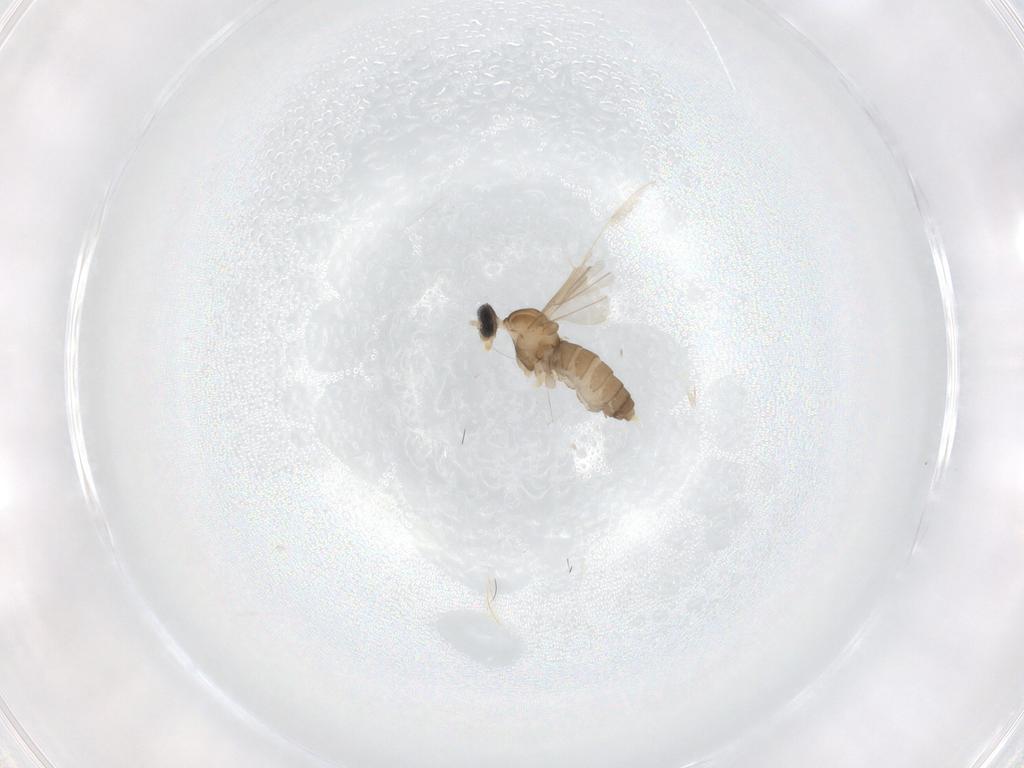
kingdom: Animalia
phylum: Arthropoda
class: Insecta
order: Diptera
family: Cecidomyiidae
